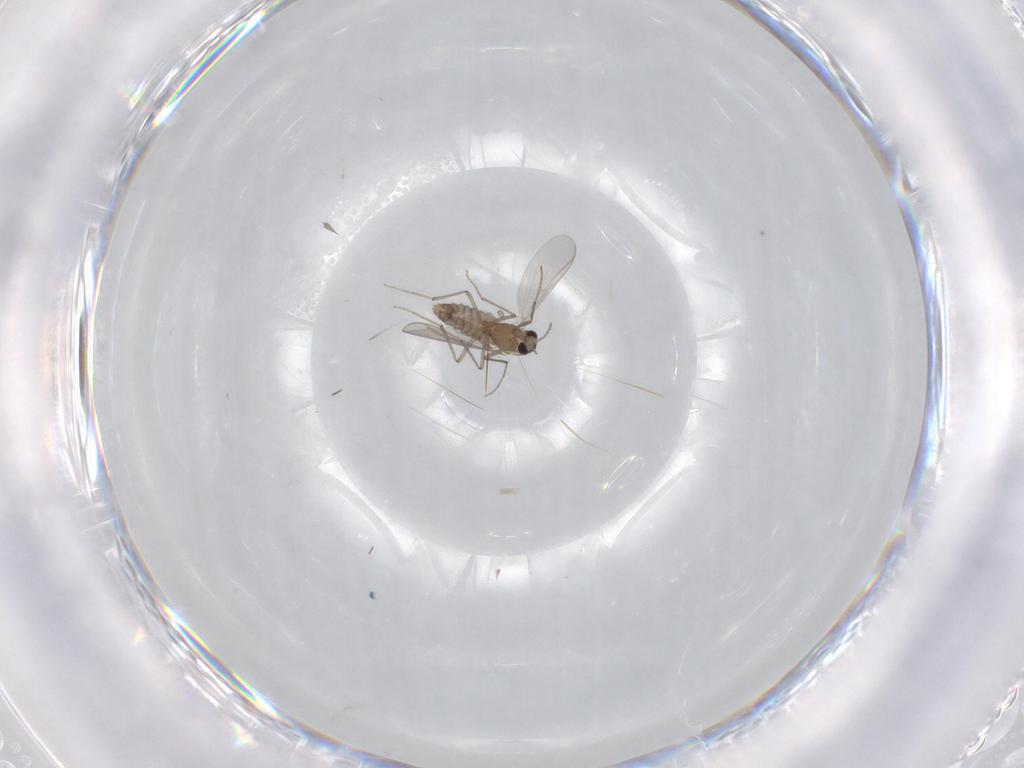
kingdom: Animalia
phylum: Arthropoda
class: Insecta
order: Diptera
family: Chironomidae
